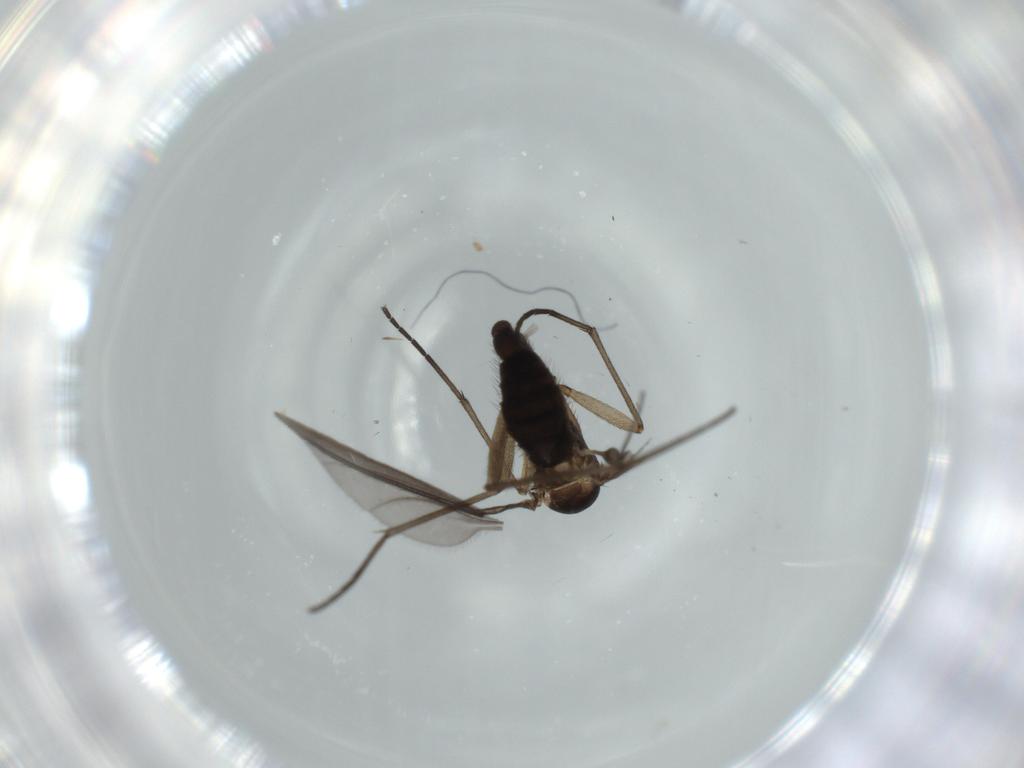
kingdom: Animalia
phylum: Arthropoda
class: Insecta
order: Diptera
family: Sciaridae
